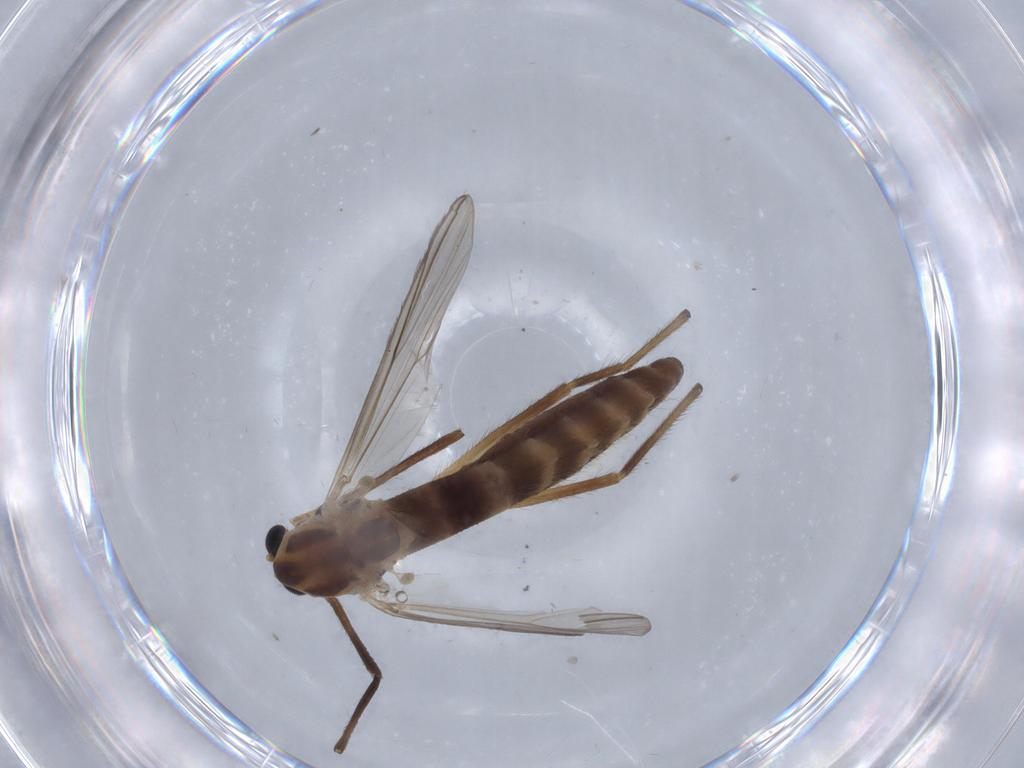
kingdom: Animalia
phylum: Arthropoda
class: Insecta
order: Diptera
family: Chironomidae
